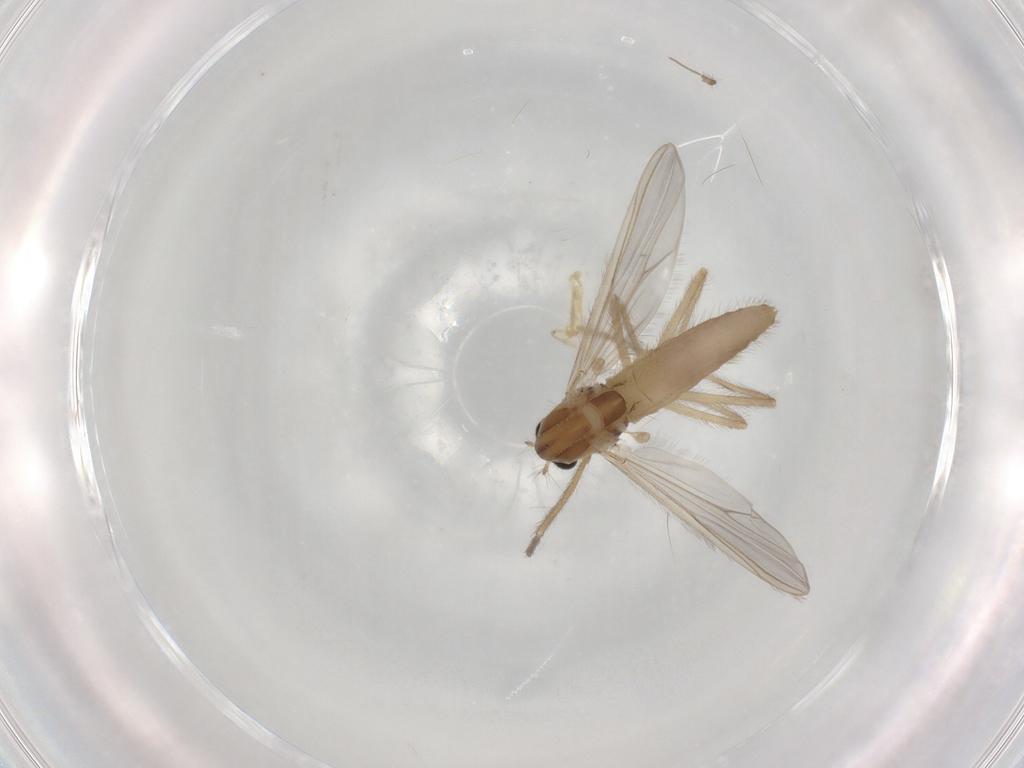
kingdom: Animalia
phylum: Arthropoda
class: Insecta
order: Diptera
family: Chironomidae
